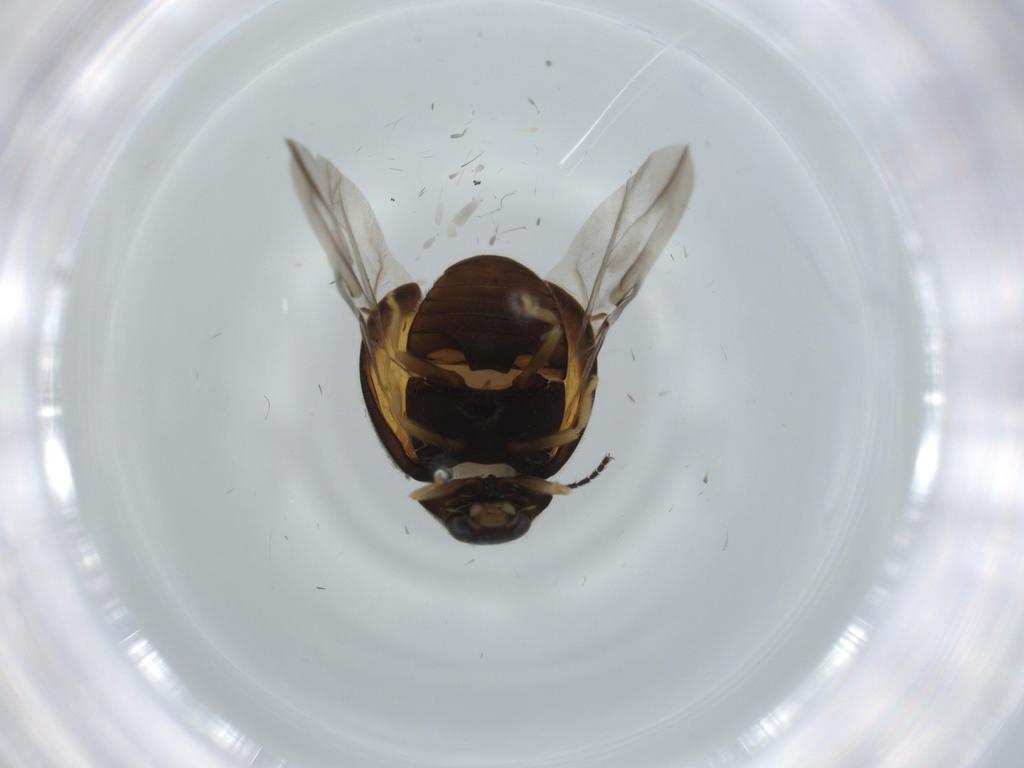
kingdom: Animalia
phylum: Arthropoda
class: Insecta
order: Coleoptera
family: Coccinellidae
